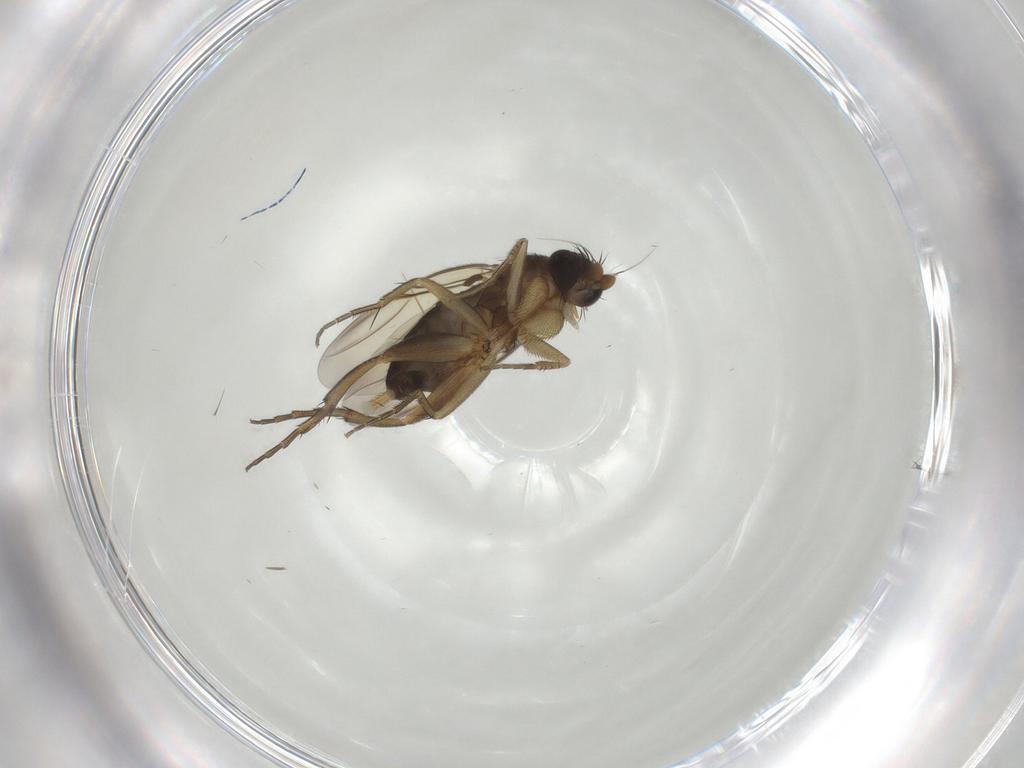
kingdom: Animalia
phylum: Arthropoda
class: Insecta
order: Diptera
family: Phoridae
